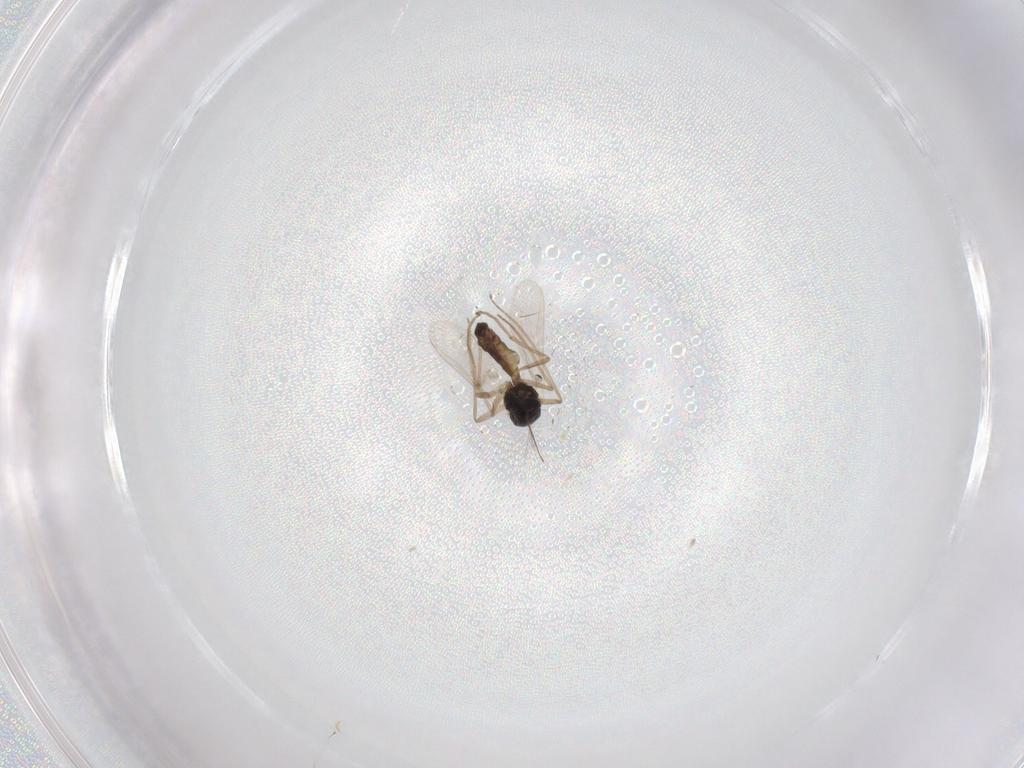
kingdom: Animalia
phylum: Arthropoda
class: Insecta
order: Diptera
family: Chironomidae
